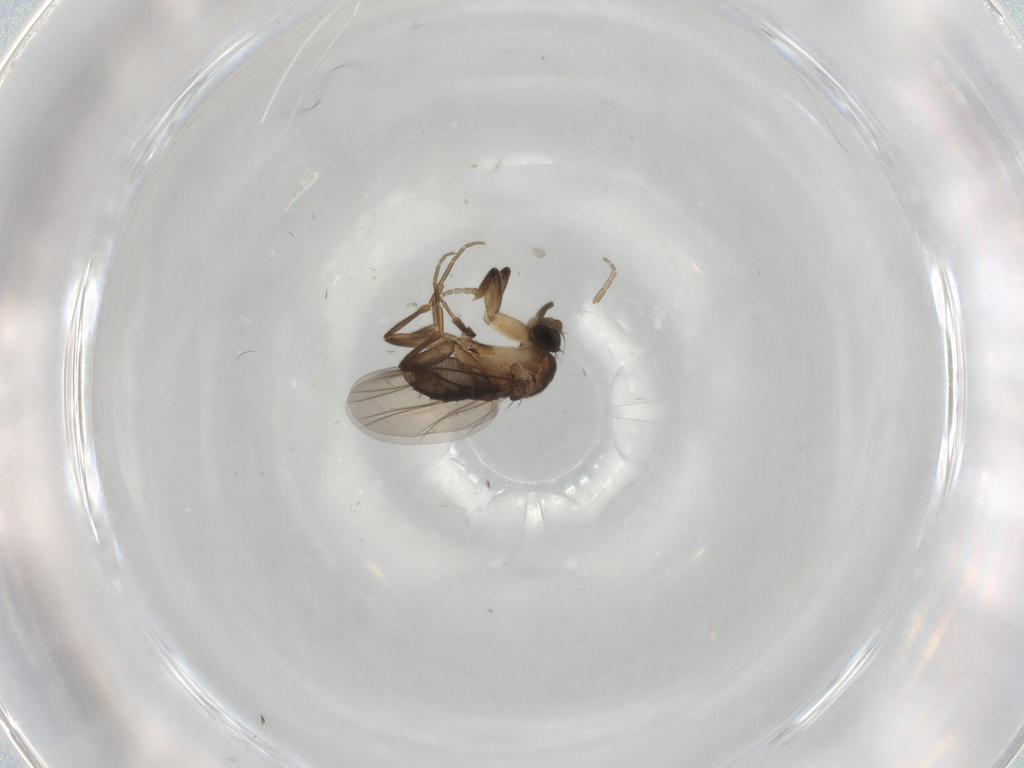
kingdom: Animalia
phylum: Arthropoda
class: Insecta
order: Diptera
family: Phoridae
